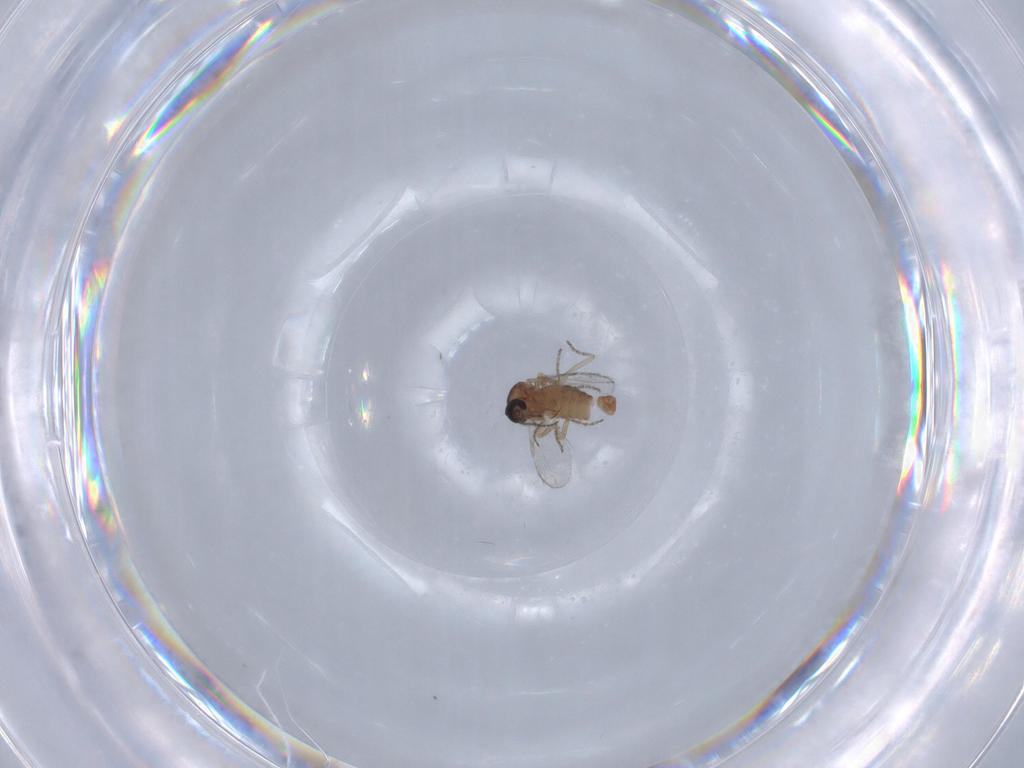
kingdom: Animalia
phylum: Arthropoda
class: Insecta
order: Diptera
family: Ceratopogonidae
